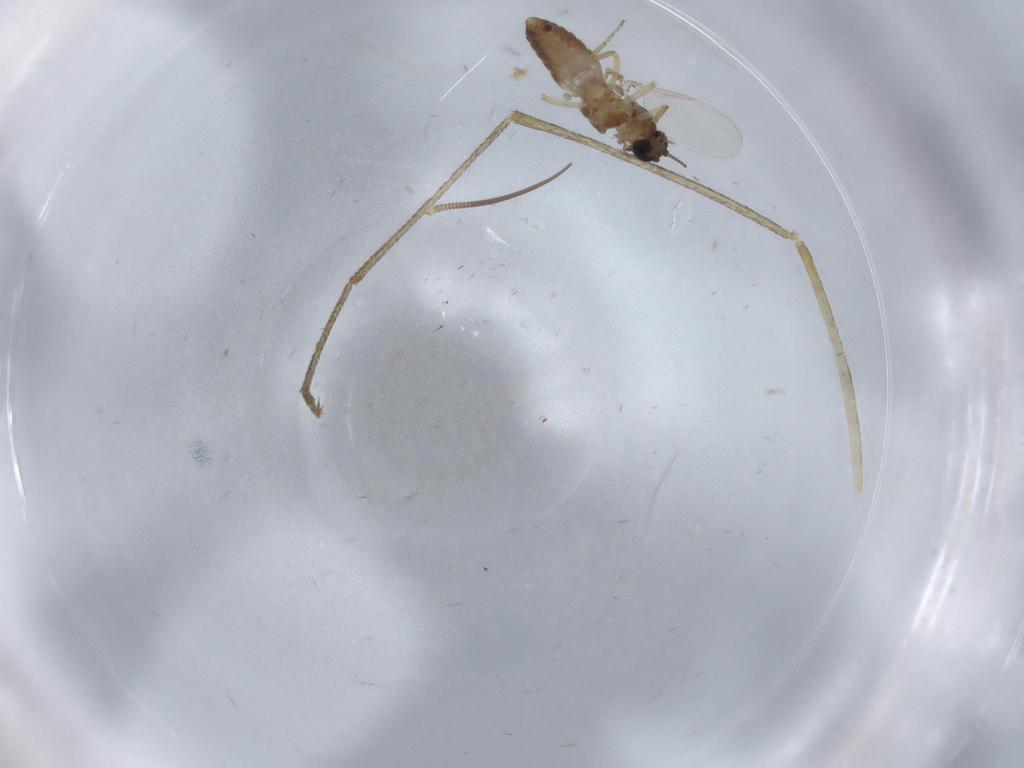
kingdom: Animalia
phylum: Arthropoda
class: Insecta
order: Diptera
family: Ceratopogonidae
